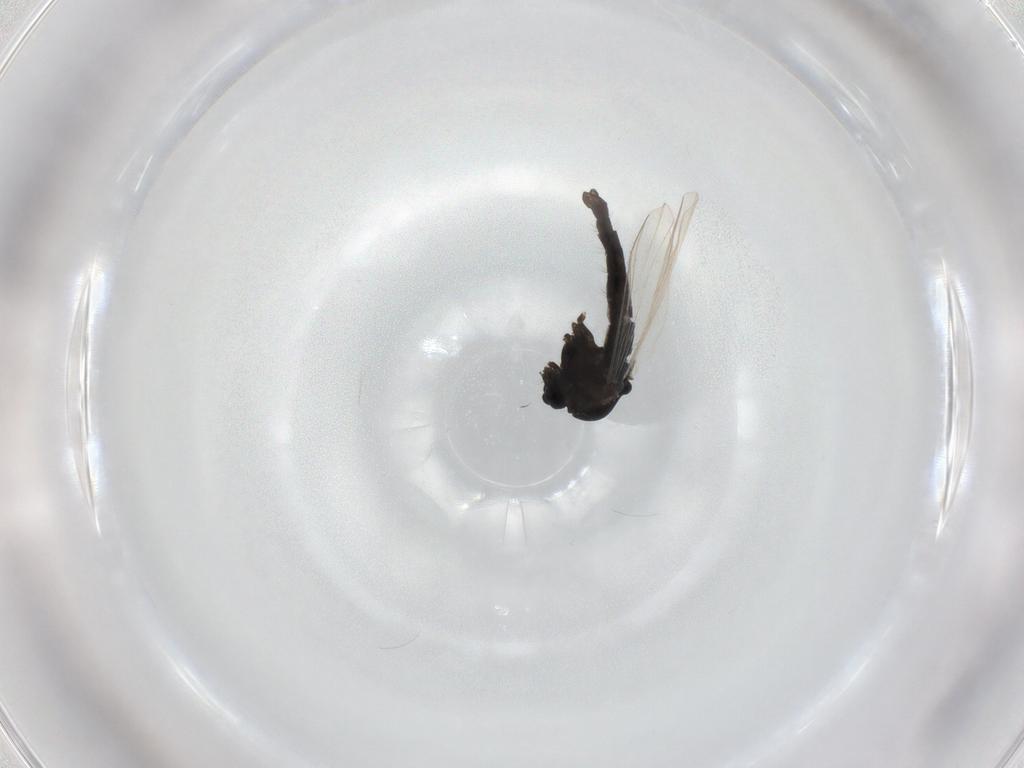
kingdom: Animalia
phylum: Arthropoda
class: Insecta
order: Diptera
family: Chironomidae
